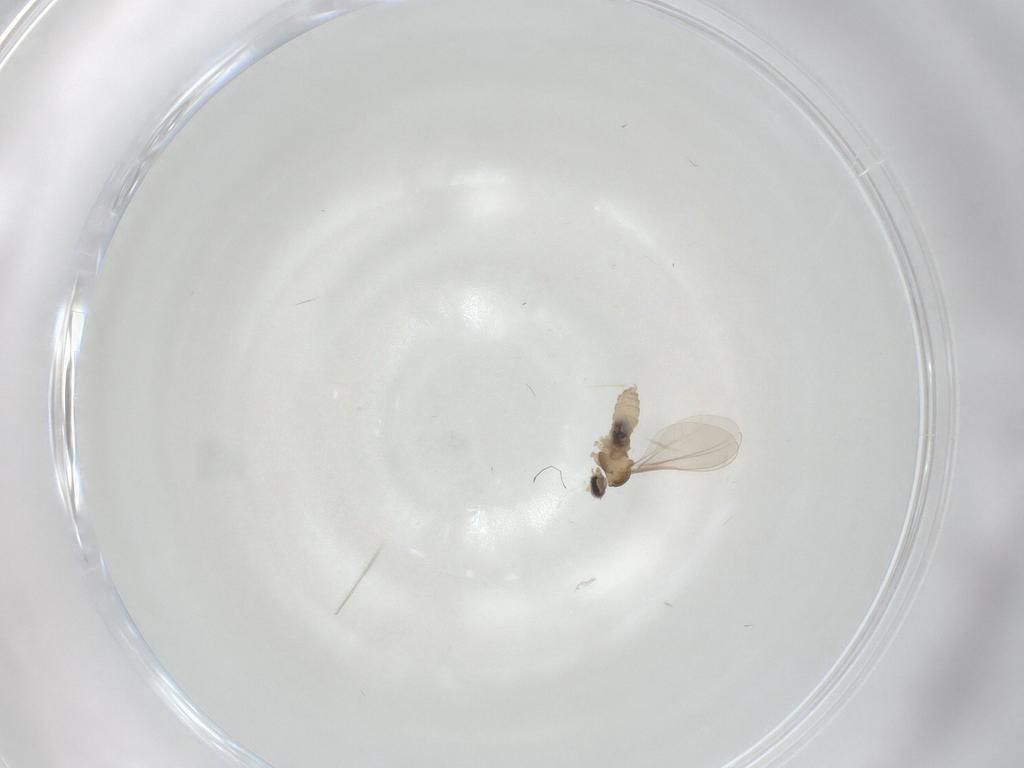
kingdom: Animalia
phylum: Arthropoda
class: Insecta
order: Diptera
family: Cecidomyiidae
